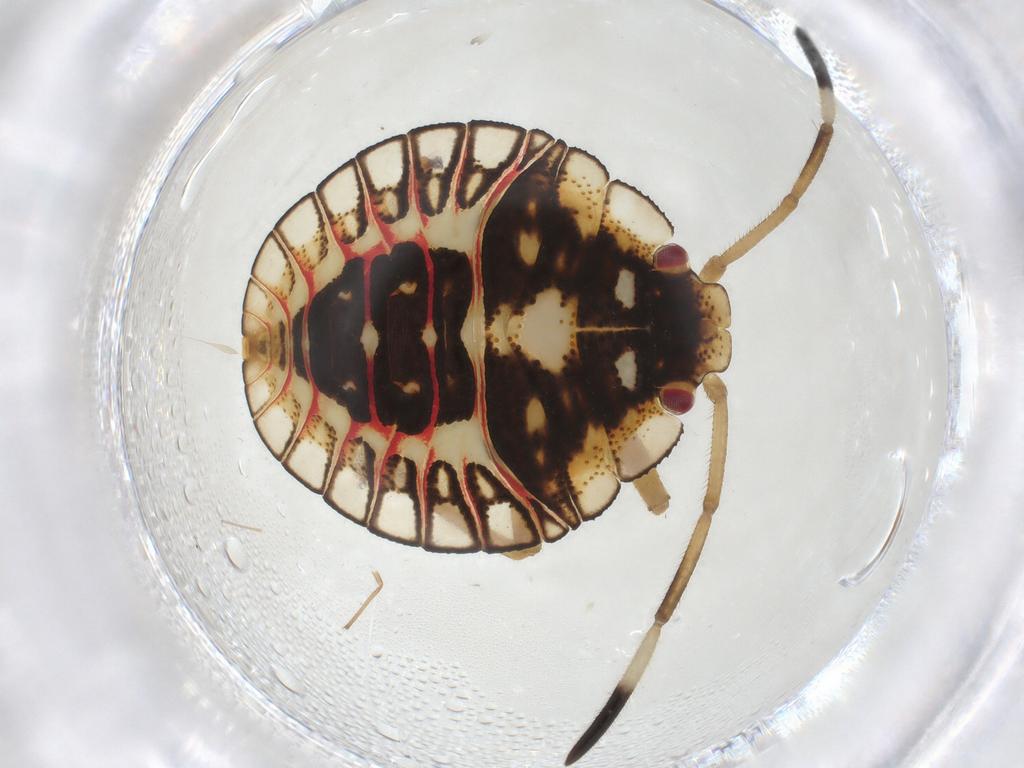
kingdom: Animalia
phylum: Arthropoda
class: Insecta
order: Hemiptera
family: Pentatomidae
